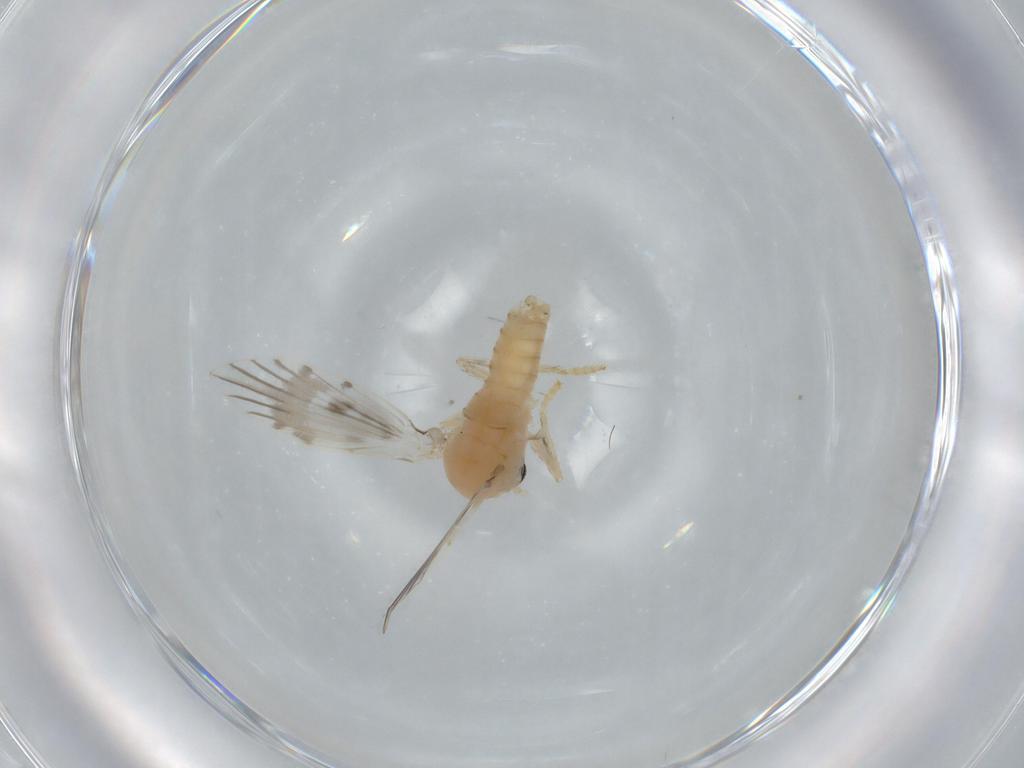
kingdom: Animalia
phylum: Arthropoda
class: Insecta
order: Diptera
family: Psychodidae
